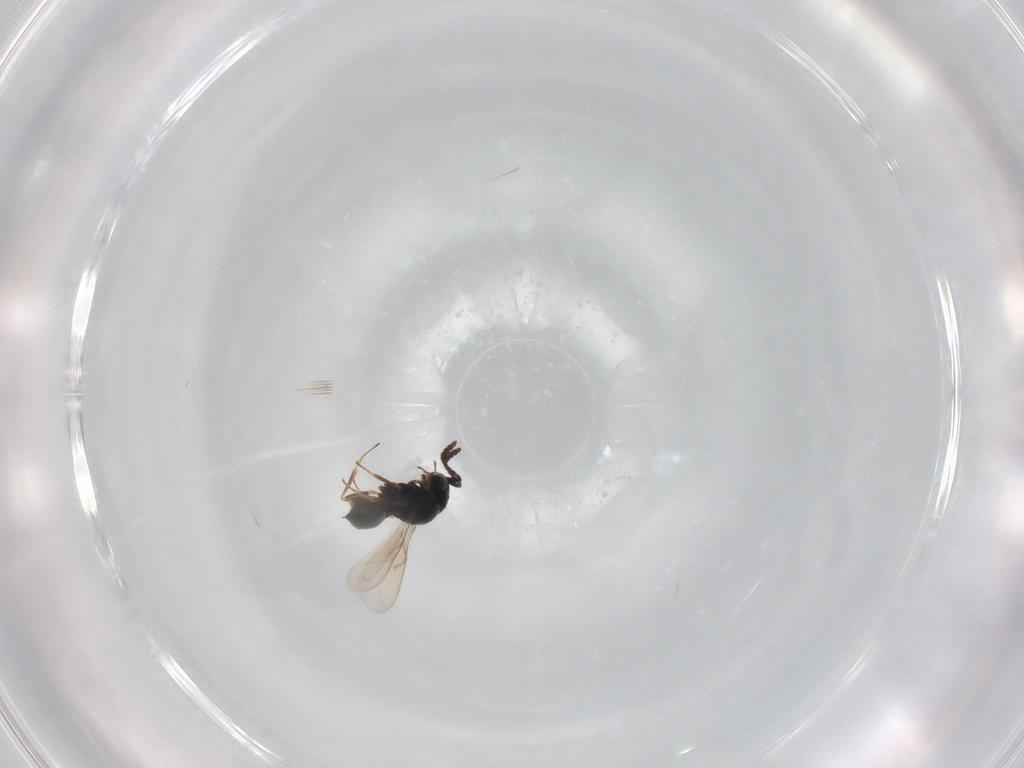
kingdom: Animalia
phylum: Arthropoda
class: Insecta
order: Hymenoptera
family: Scelionidae
